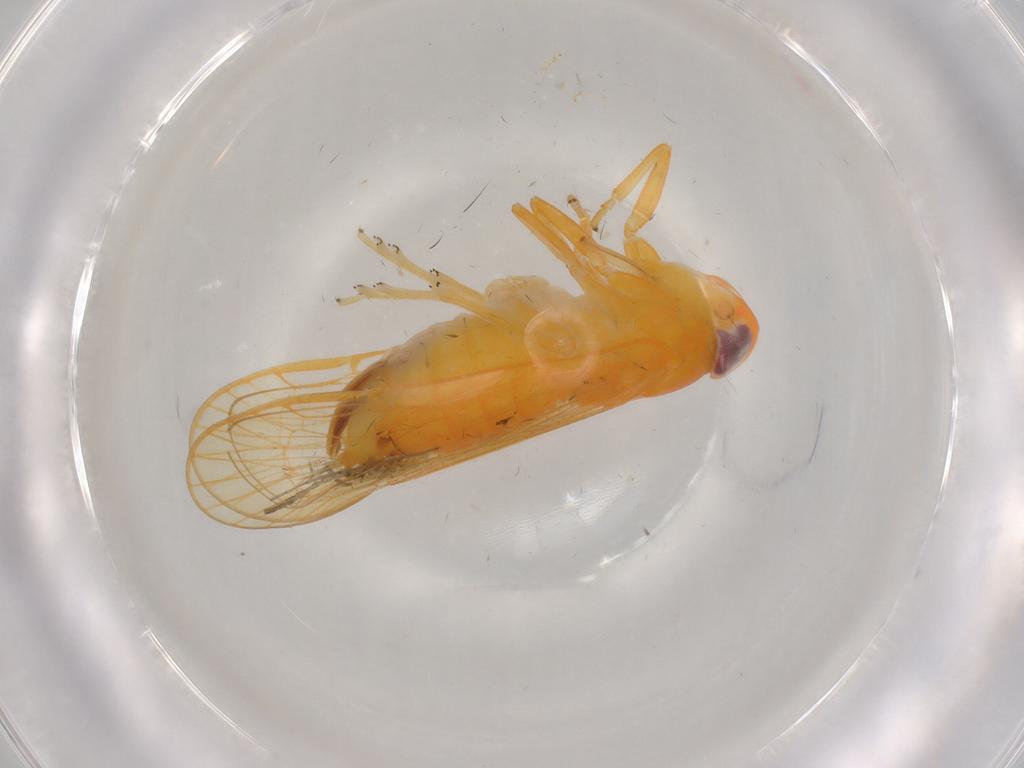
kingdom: Animalia
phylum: Arthropoda
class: Insecta
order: Hemiptera
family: Cixiidae
